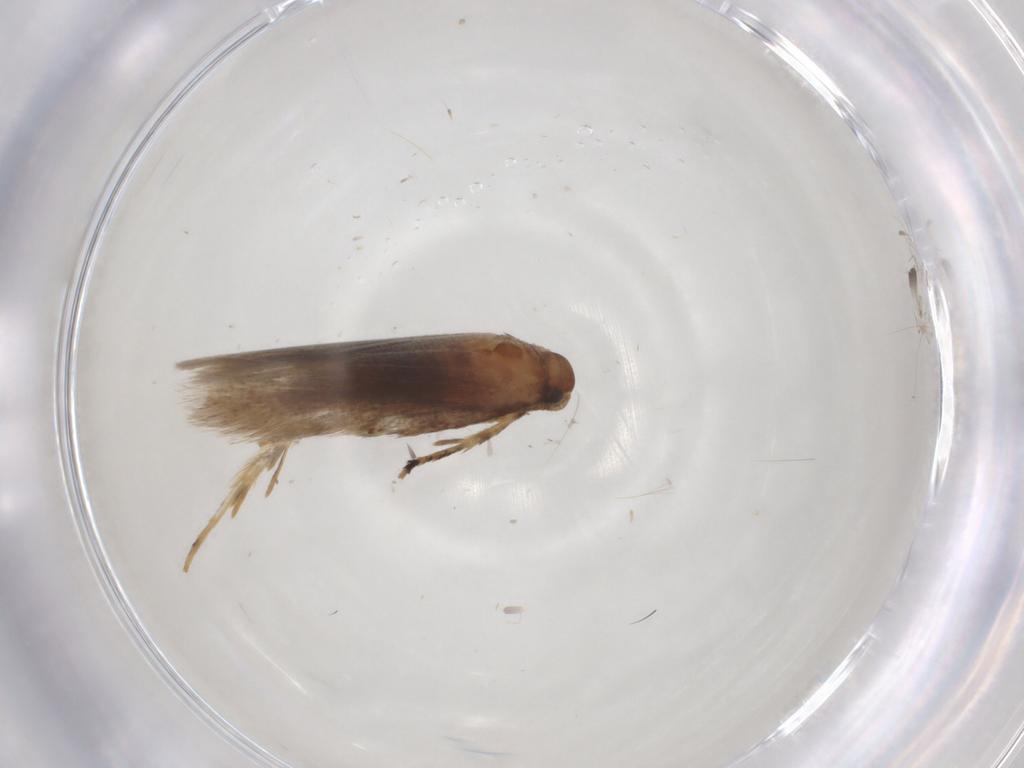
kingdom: Animalia
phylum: Arthropoda
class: Insecta
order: Lepidoptera
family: Gelechiidae
